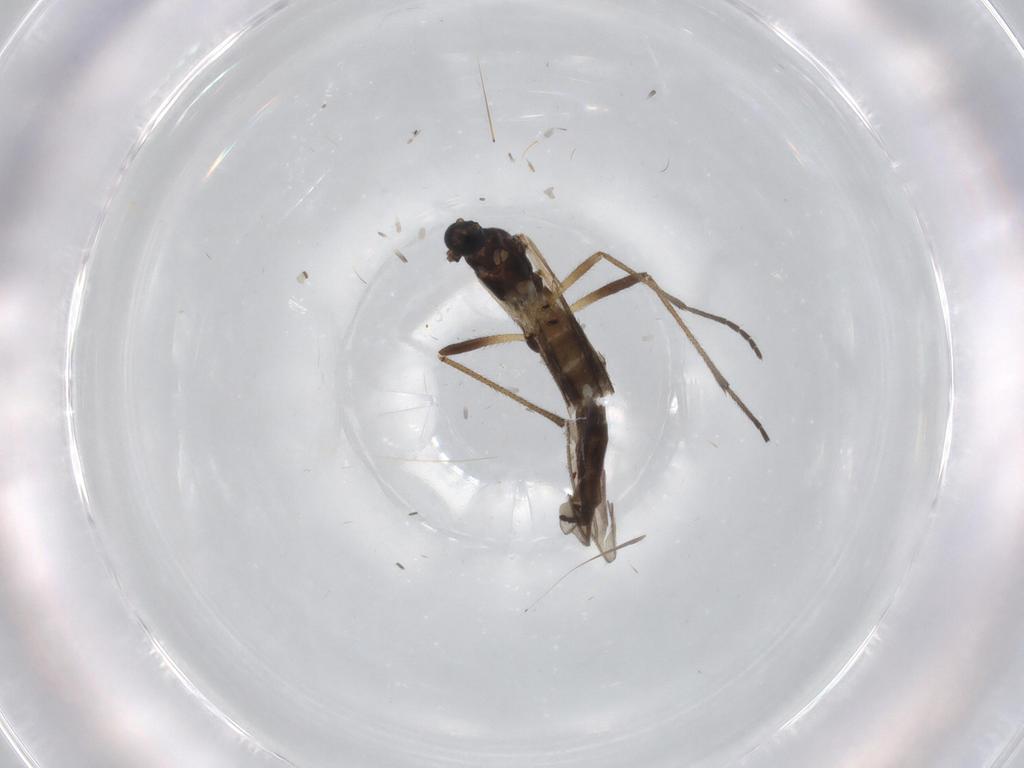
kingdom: Animalia
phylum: Arthropoda
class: Insecta
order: Diptera
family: Sciaridae
